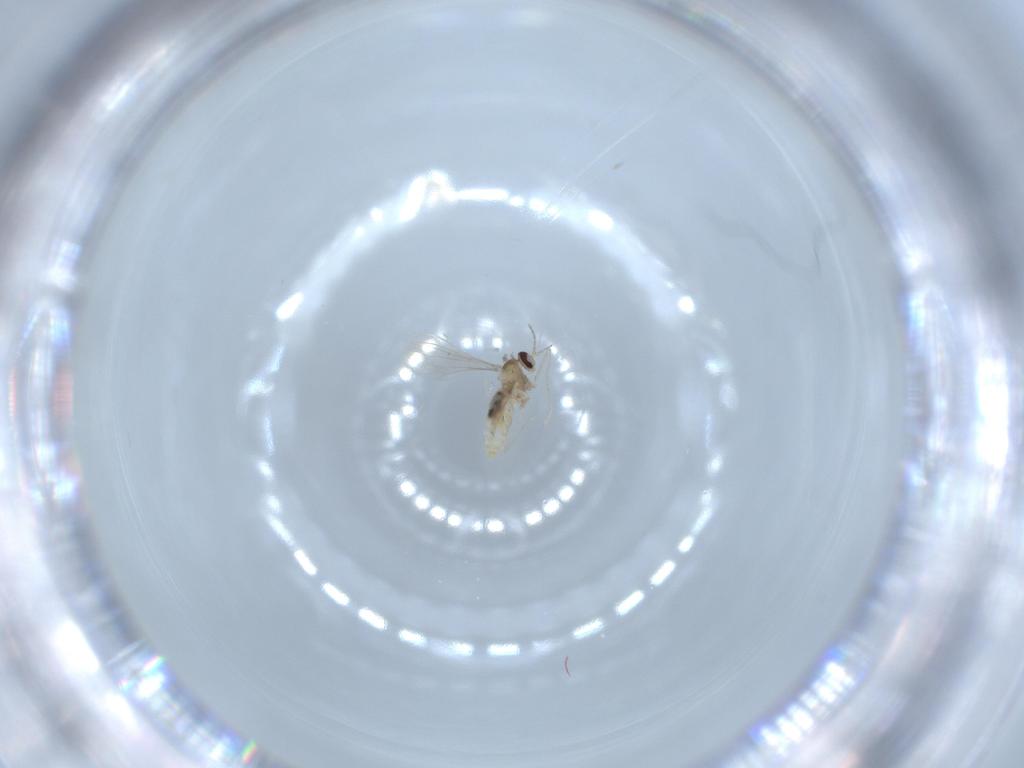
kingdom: Animalia
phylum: Arthropoda
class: Insecta
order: Diptera
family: Cecidomyiidae
